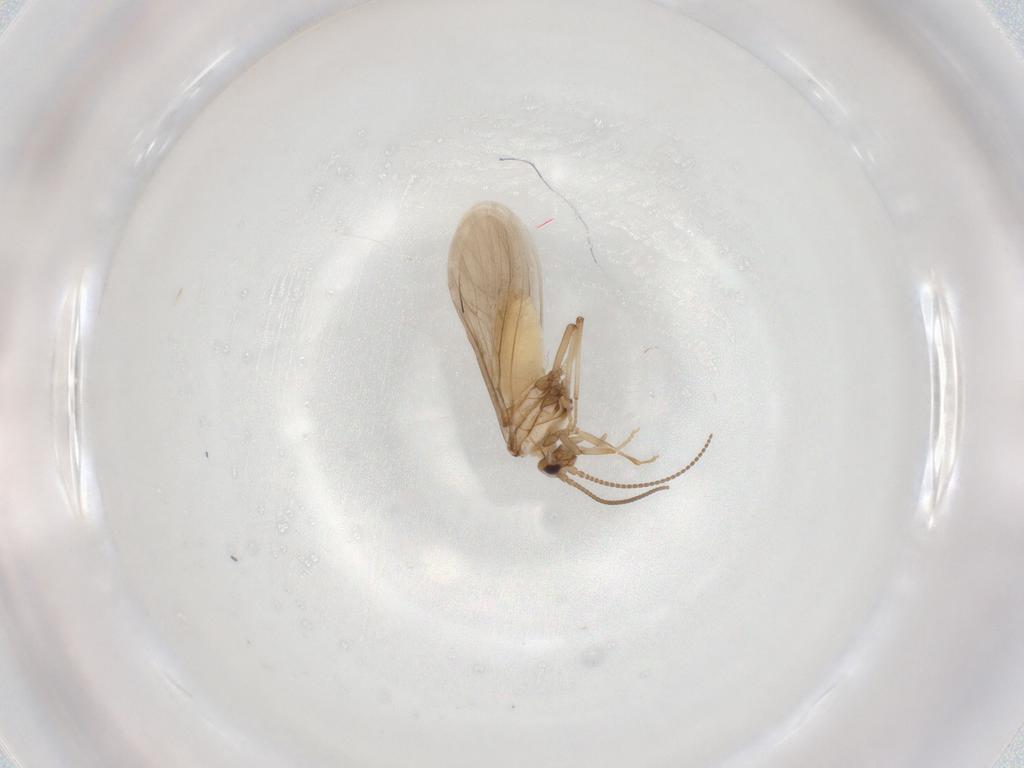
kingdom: Animalia
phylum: Arthropoda
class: Insecta
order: Neuroptera
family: Coniopterygidae
